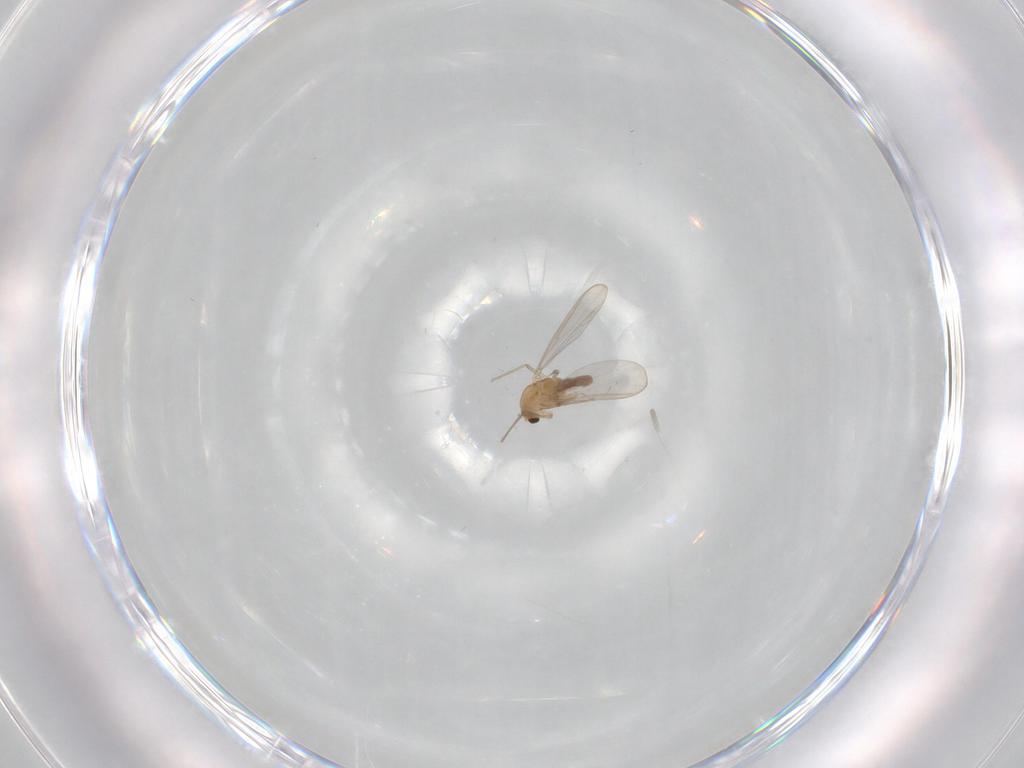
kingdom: Animalia
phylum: Arthropoda
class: Insecta
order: Diptera
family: Chironomidae
